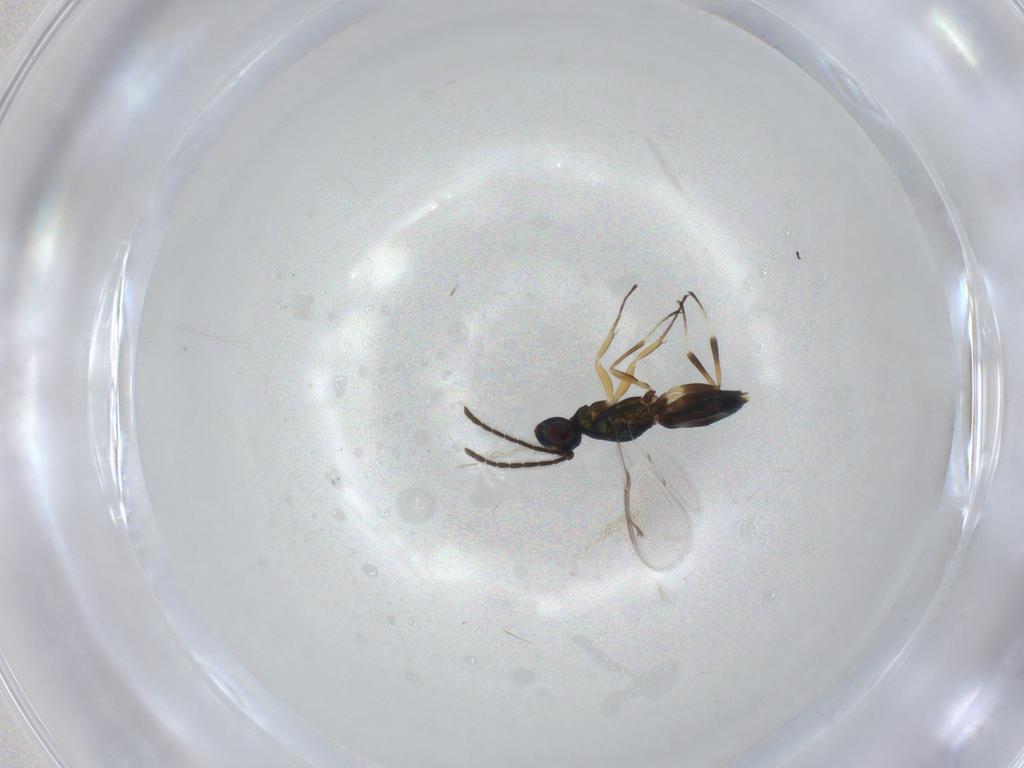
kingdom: Animalia
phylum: Arthropoda
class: Insecta
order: Hymenoptera
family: Eupelmidae
